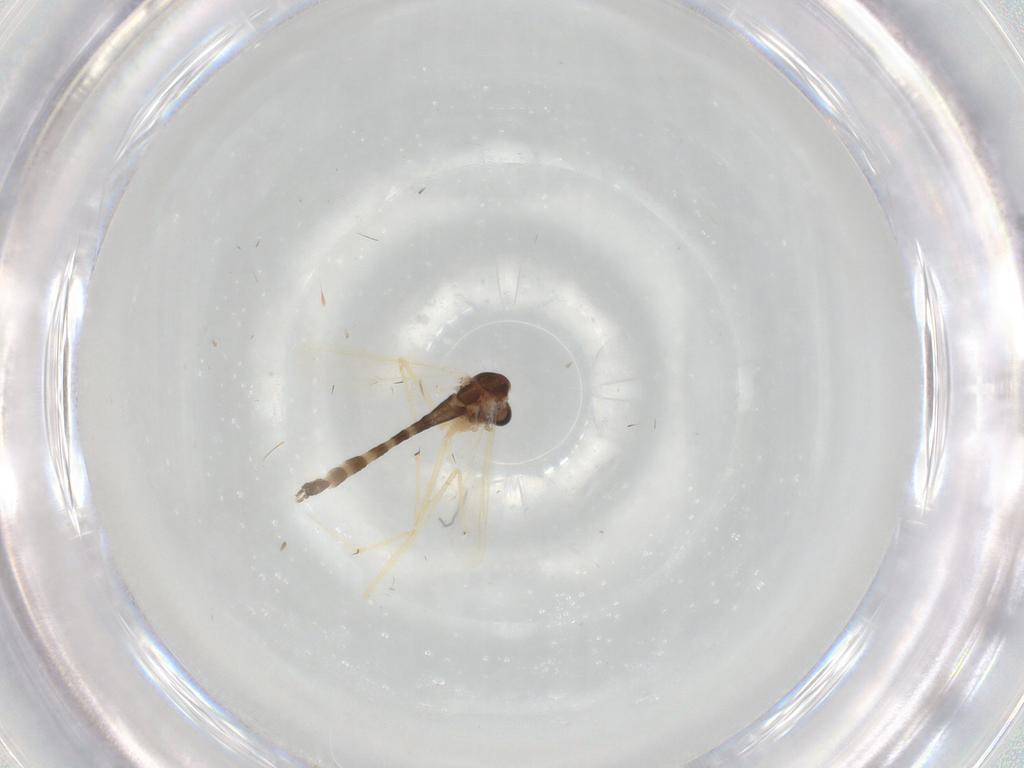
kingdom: Animalia
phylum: Arthropoda
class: Insecta
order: Diptera
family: Chironomidae
